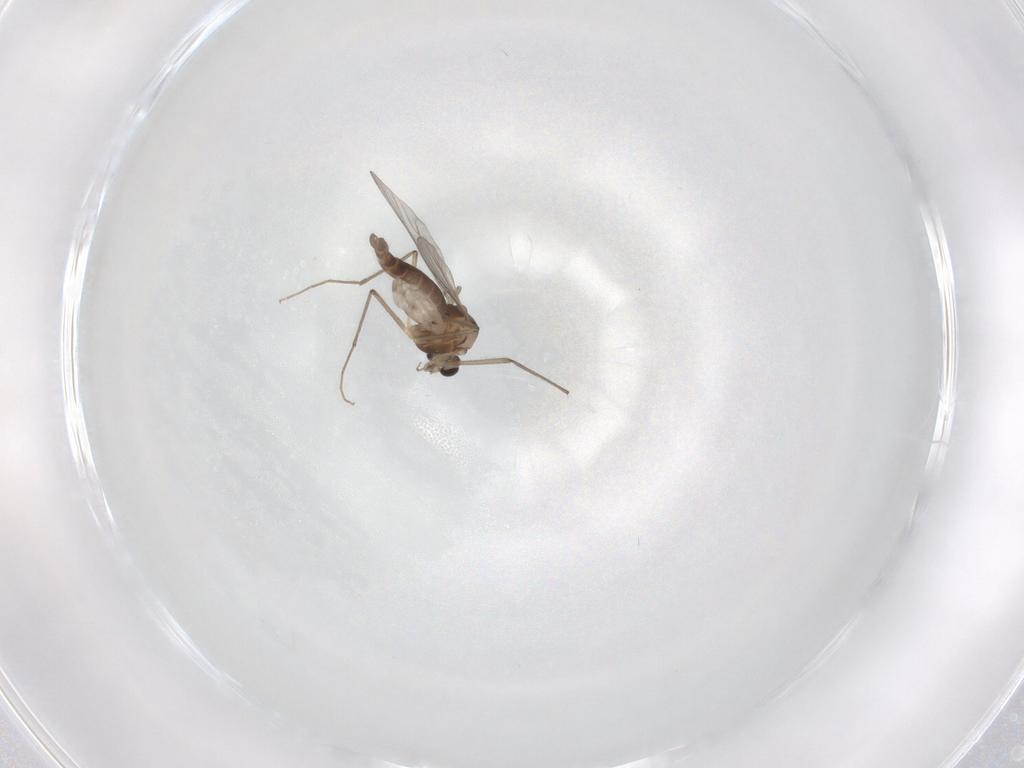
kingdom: Animalia
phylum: Arthropoda
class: Insecta
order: Diptera
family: Chironomidae
